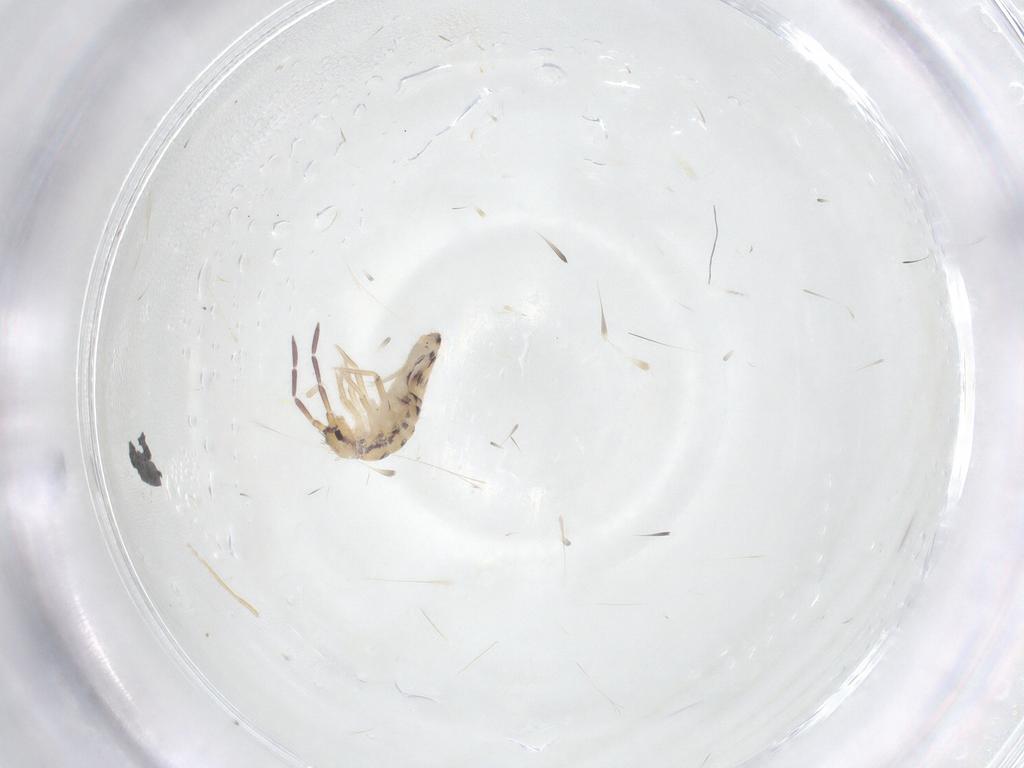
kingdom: Animalia
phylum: Arthropoda
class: Collembola
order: Entomobryomorpha
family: Entomobryidae
